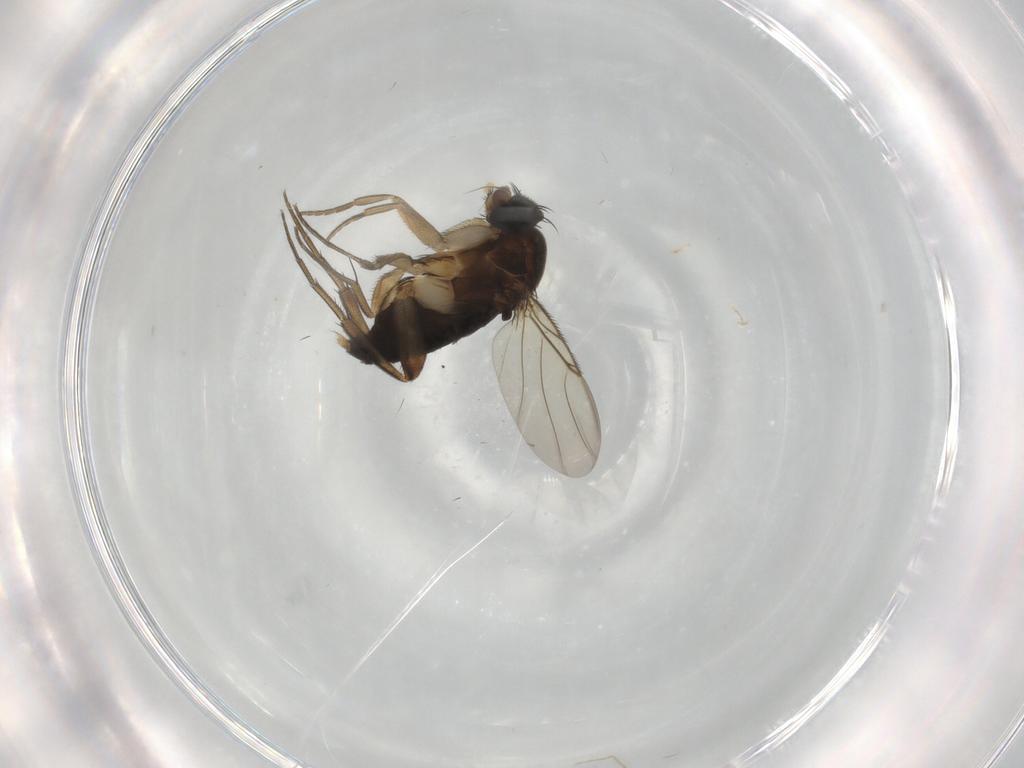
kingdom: Animalia
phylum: Arthropoda
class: Insecta
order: Diptera
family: Phoridae
